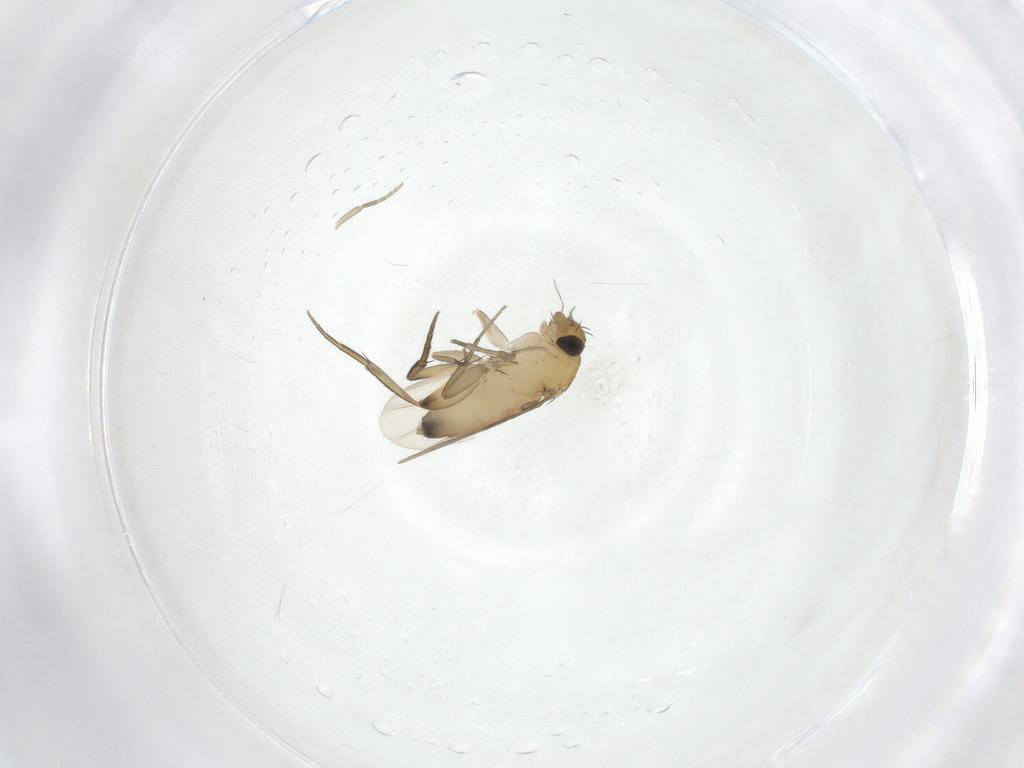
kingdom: Animalia
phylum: Arthropoda
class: Insecta
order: Diptera
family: Phoridae
